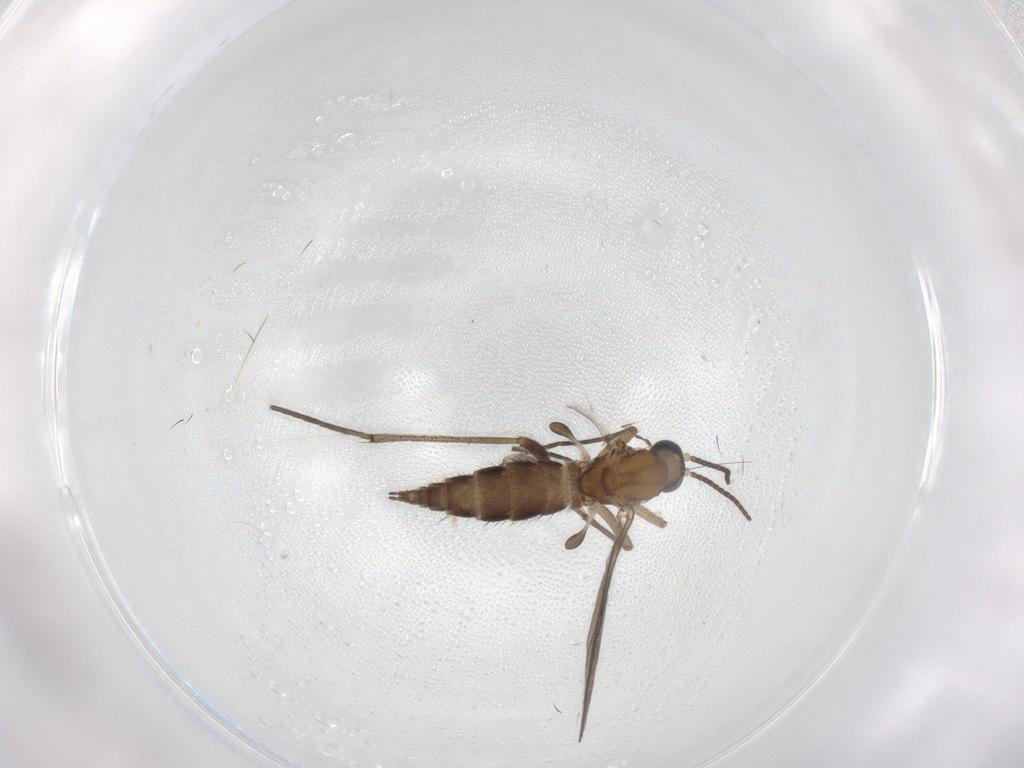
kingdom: Animalia
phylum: Arthropoda
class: Insecta
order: Diptera
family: Sciaridae
